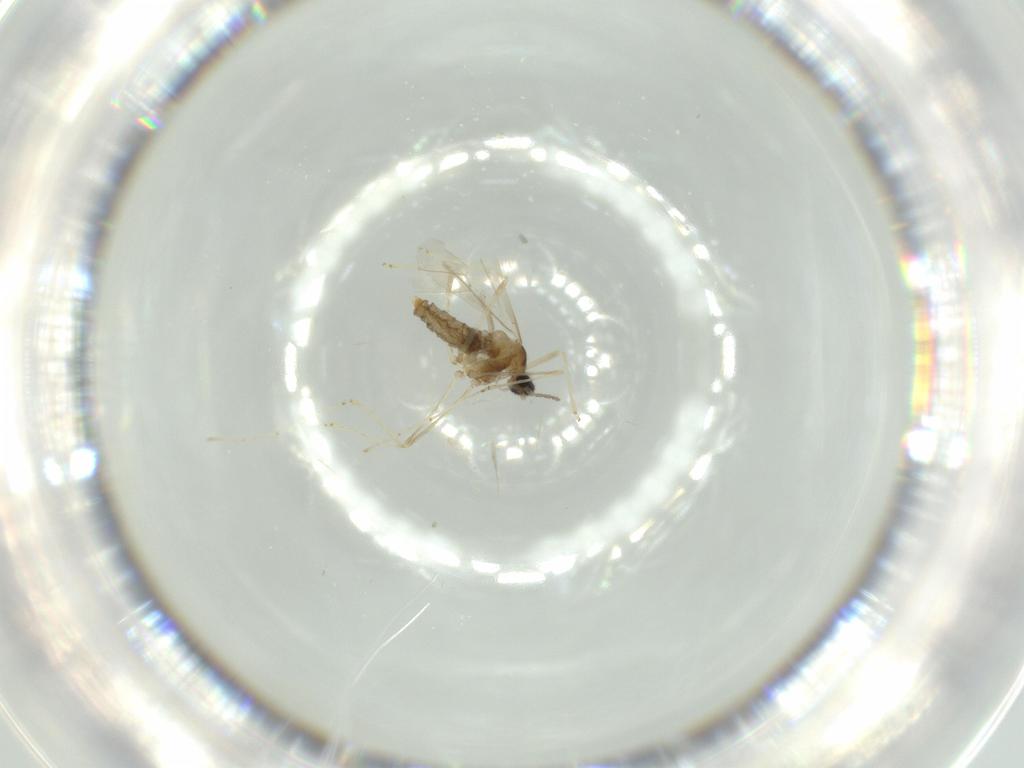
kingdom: Animalia
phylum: Arthropoda
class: Insecta
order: Diptera
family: Cecidomyiidae
